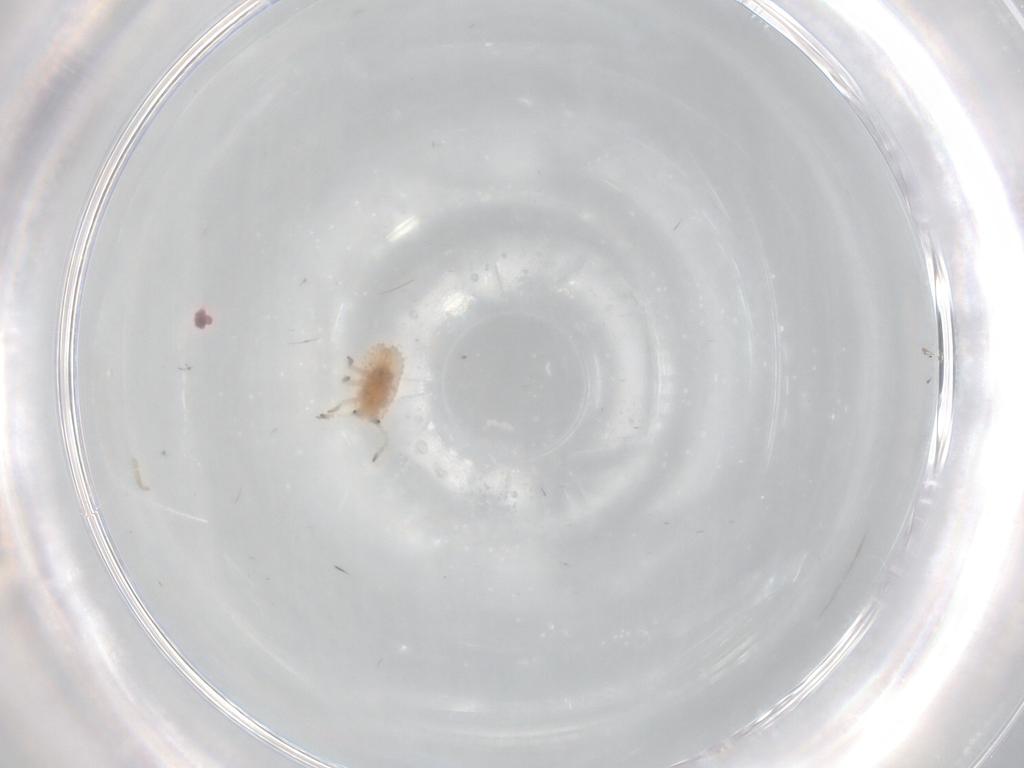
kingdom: Animalia
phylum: Arthropoda
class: Insecta
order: Hemiptera
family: Coccoidea_incertae_sedis
